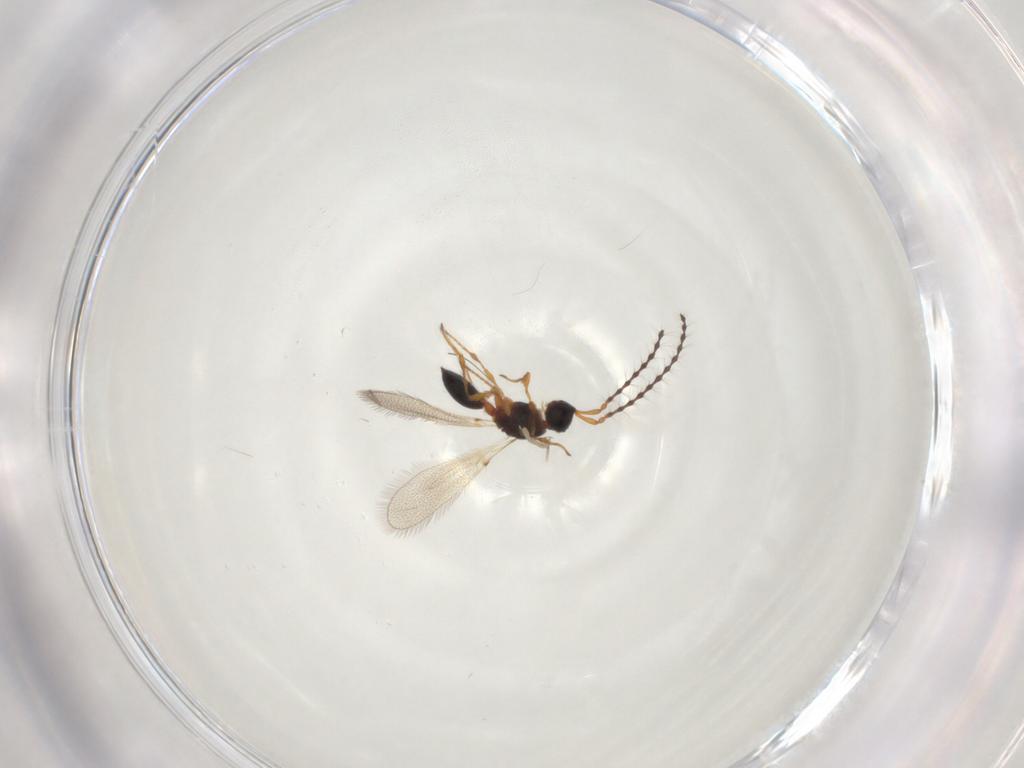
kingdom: Animalia
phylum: Arthropoda
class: Insecta
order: Hymenoptera
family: Diapriidae
